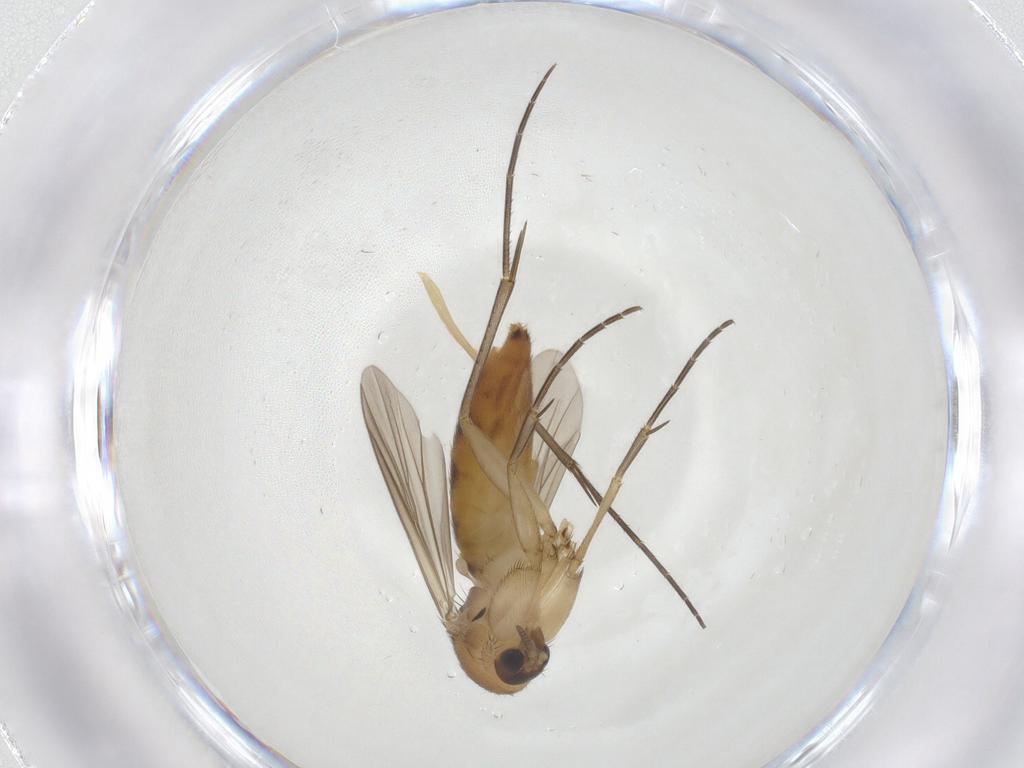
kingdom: Animalia
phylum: Arthropoda
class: Insecta
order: Diptera
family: Mycetophilidae
